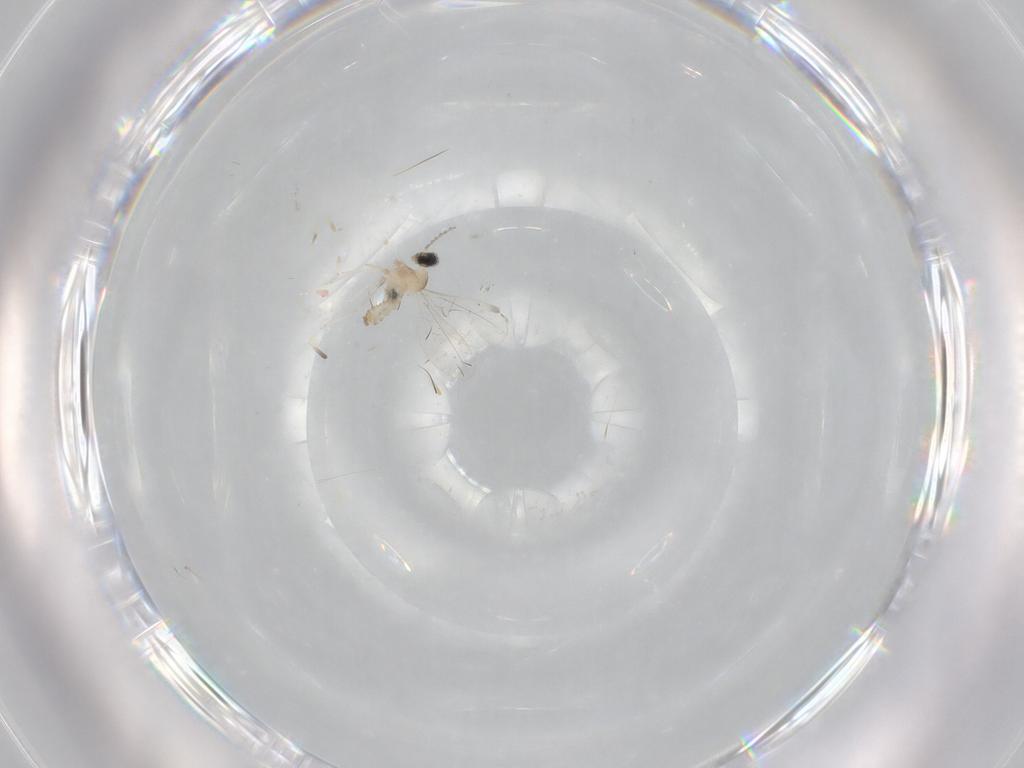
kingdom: Animalia
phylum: Arthropoda
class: Insecta
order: Diptera
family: Cecidomyiidae
